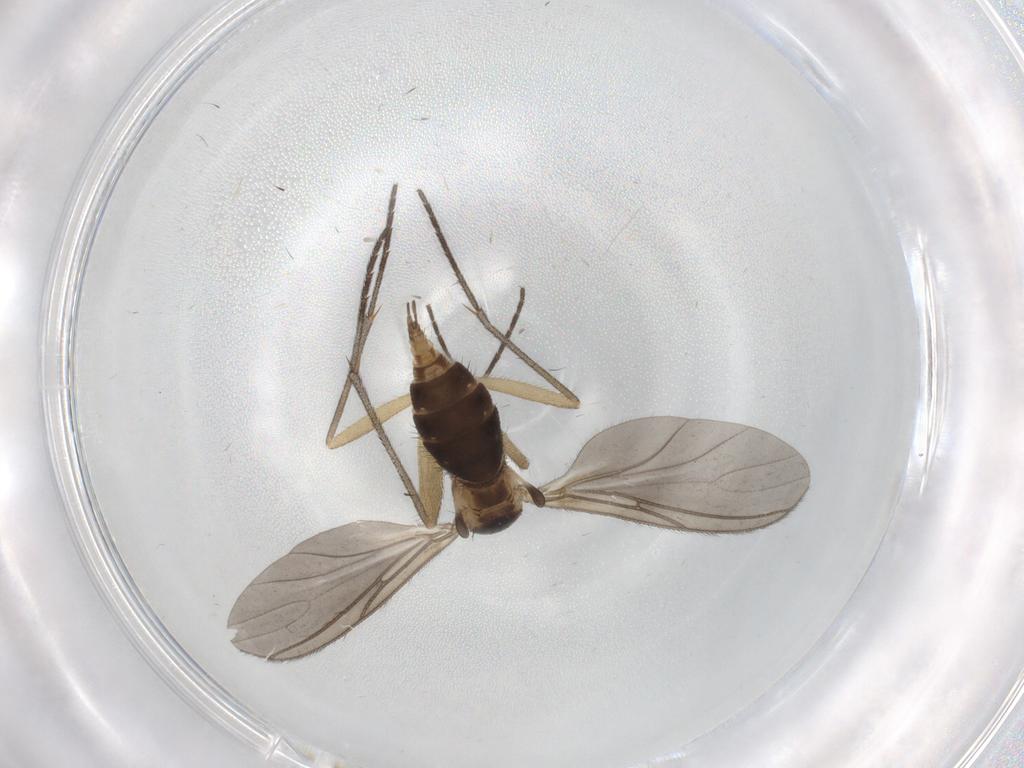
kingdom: Animalia
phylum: Arthropoda
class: Insecta
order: Diptera
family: Sciaridae
